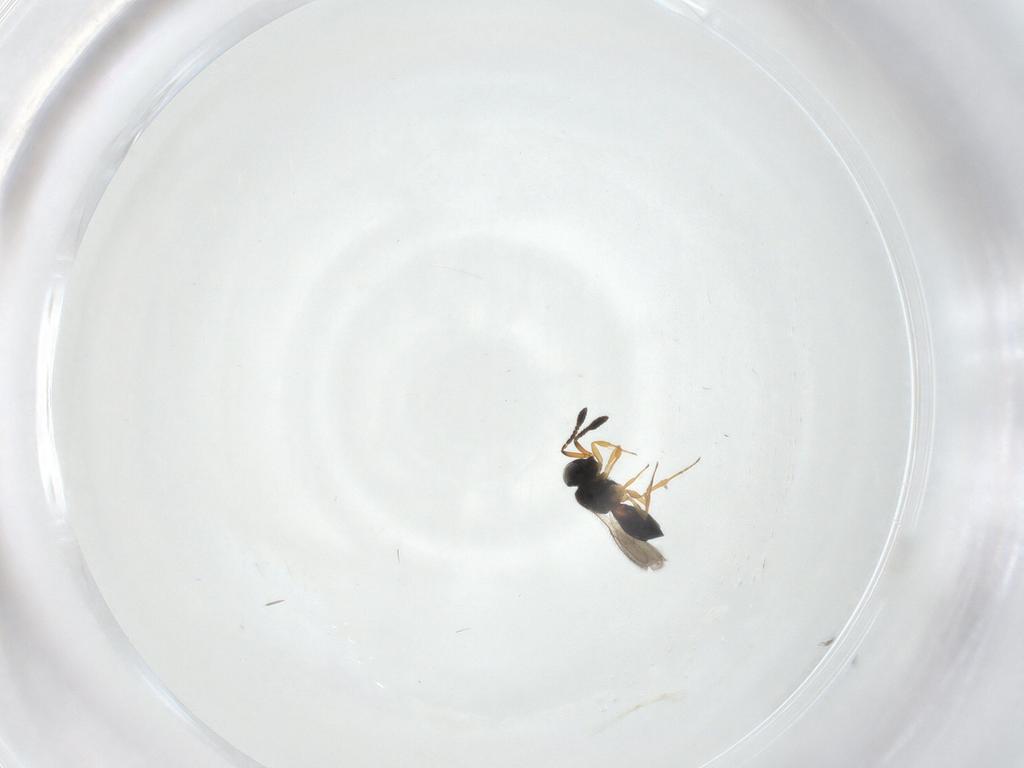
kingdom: Animalia
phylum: Arthropoda
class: Insecta
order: Hymenoptera
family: Scelionidae
